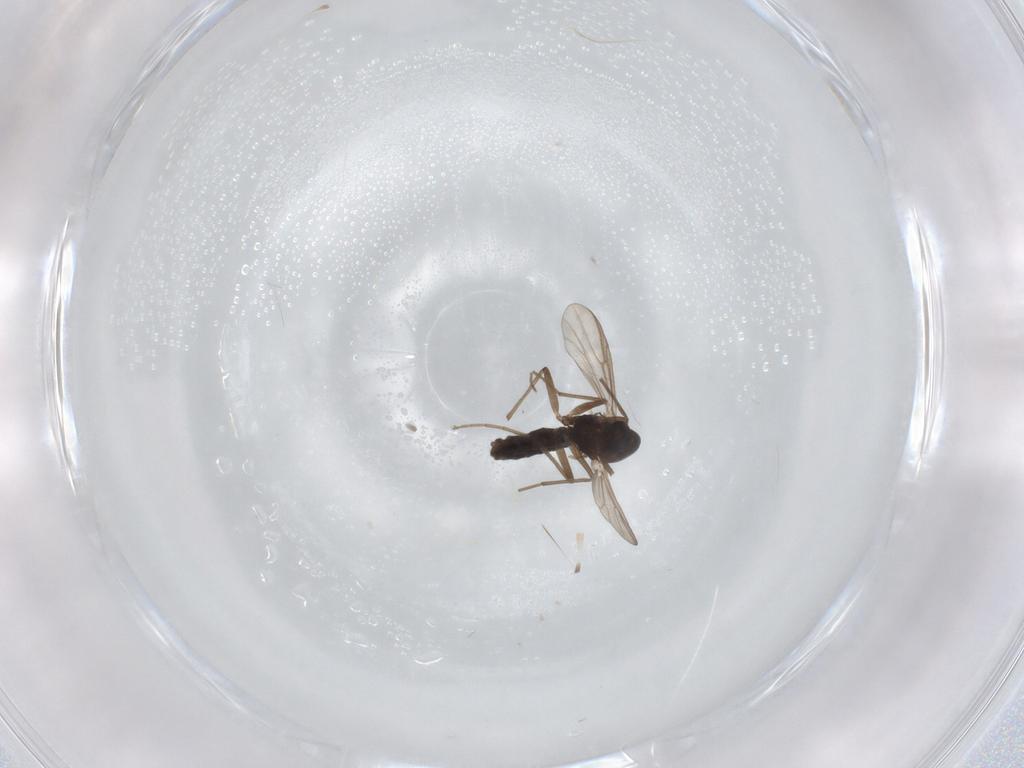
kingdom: Animalia
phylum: Arthropoda
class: Insecta
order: Diptera
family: Chironomidae
